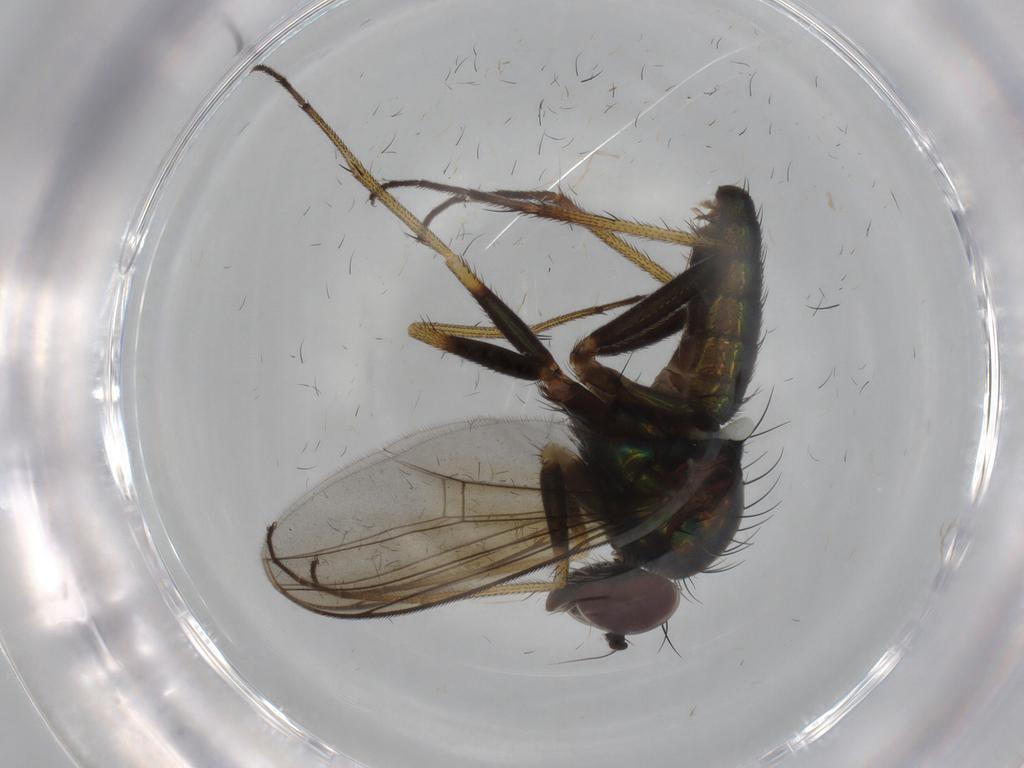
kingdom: Animalia
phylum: Arthropoda
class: Insecta
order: Diptera
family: Dolichopodidae
